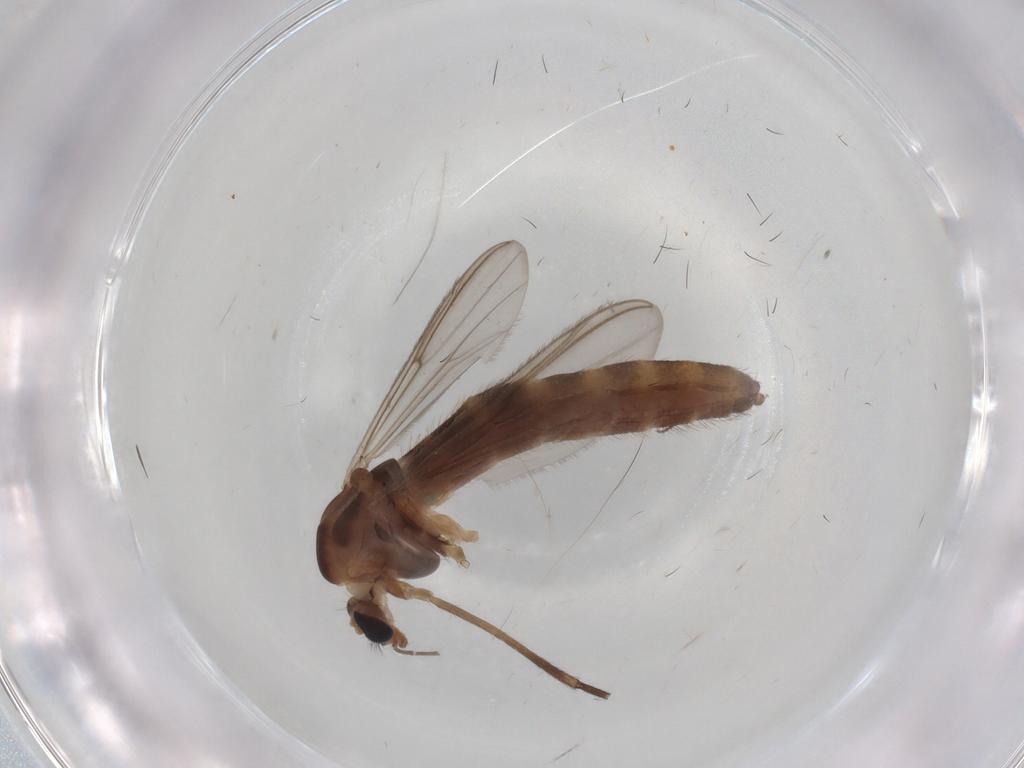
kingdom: Animalia
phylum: Arthropoda
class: Insecta
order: Diptera
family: Chironomidae
